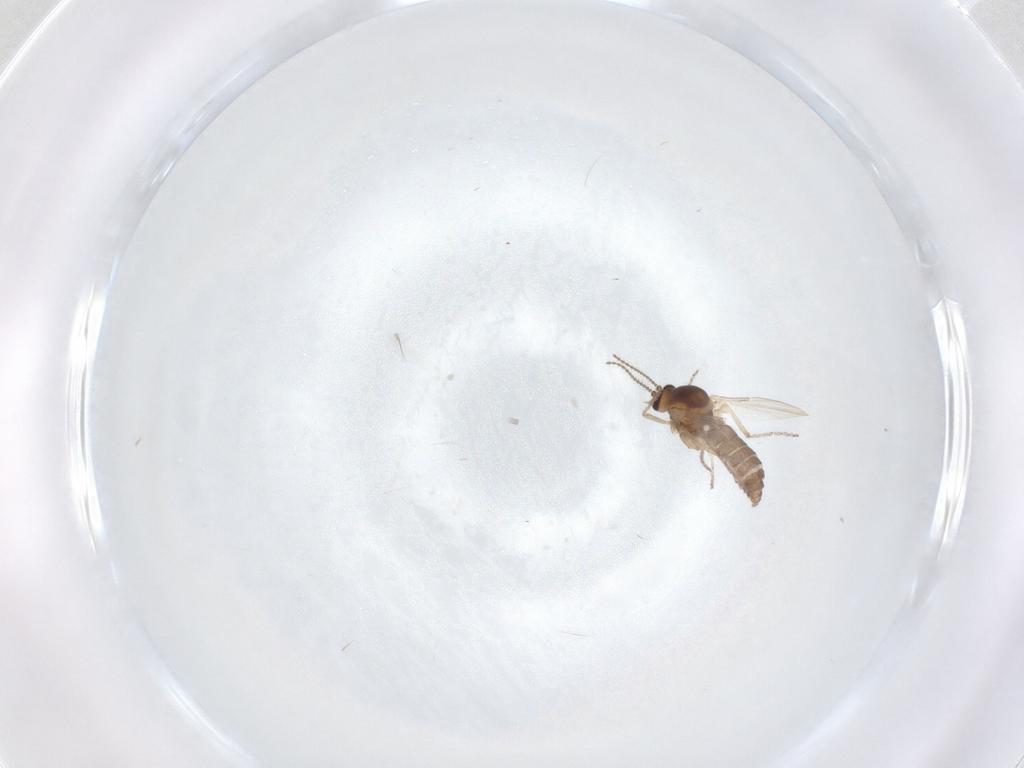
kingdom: Animalia
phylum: Arthropoda
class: Insecta
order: Diptera
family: Ceratopogonidae
